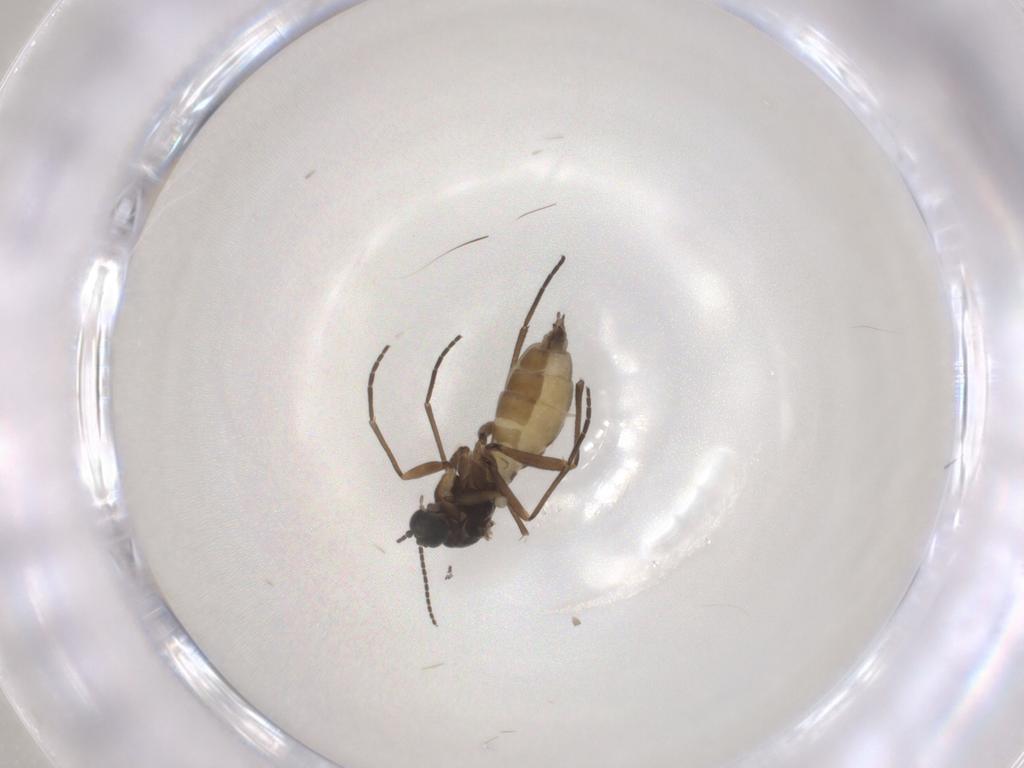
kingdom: Animalia
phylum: Arthropoda
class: Insecta
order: Diptera
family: Sciaridae
